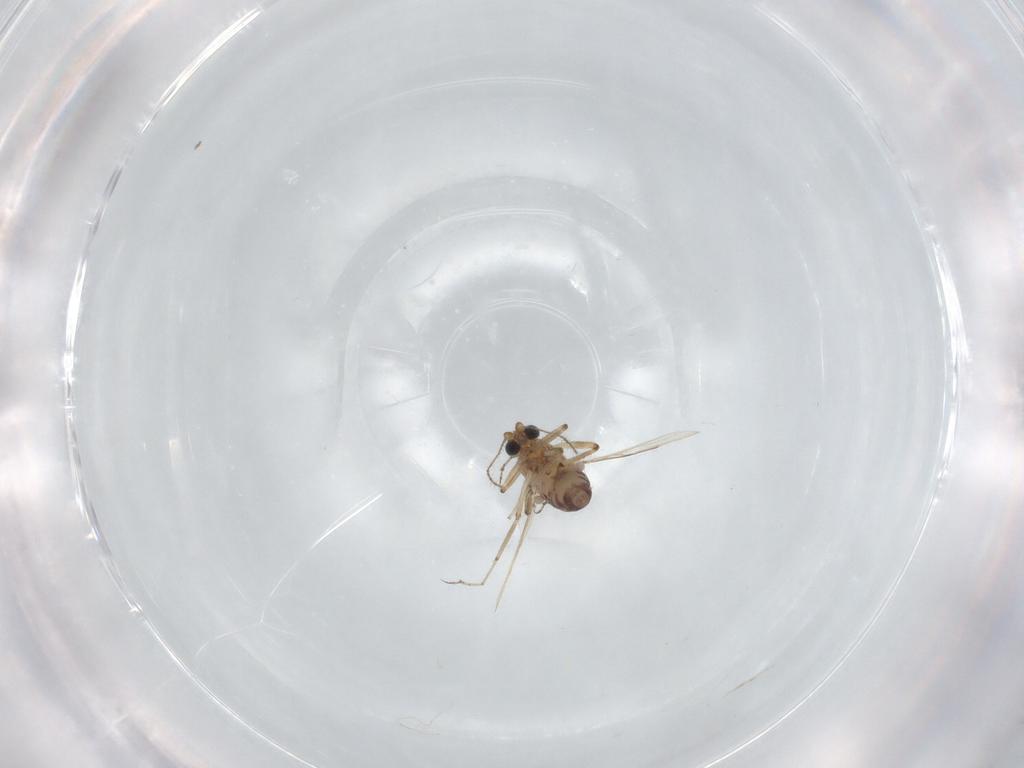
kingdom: Animalia
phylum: Arthropoda
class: Insecta
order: Diptera
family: Ceratopogonidae
